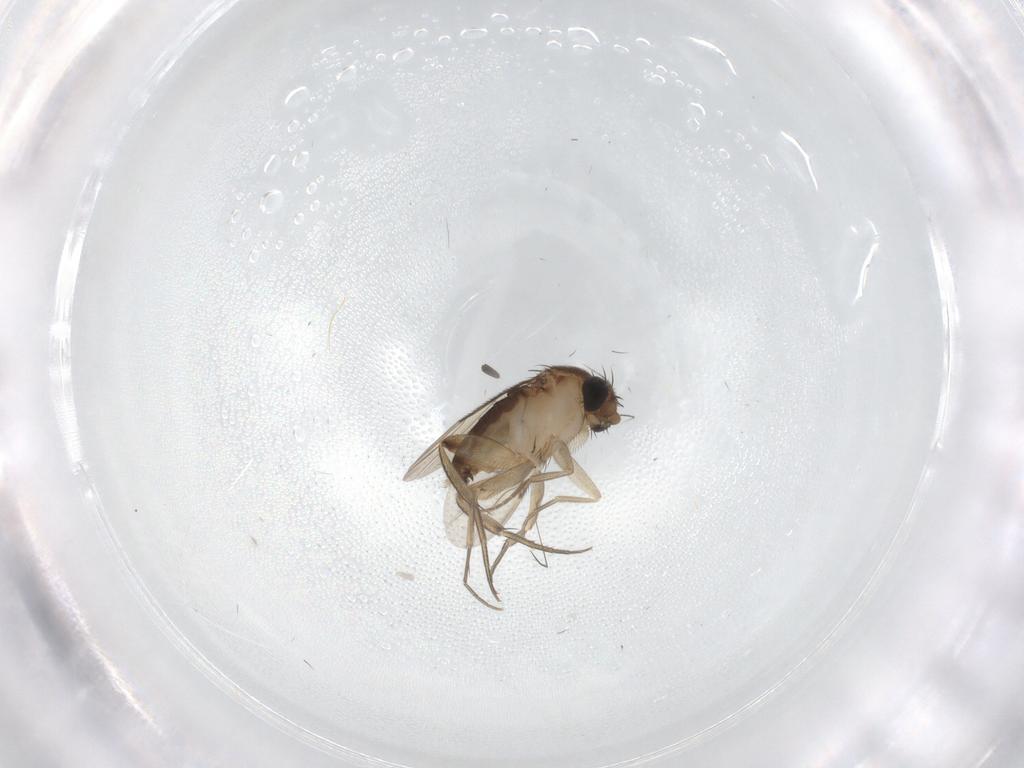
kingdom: Animalia
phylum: Arthropoda
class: Insecta
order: Diptera
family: Phoridae
